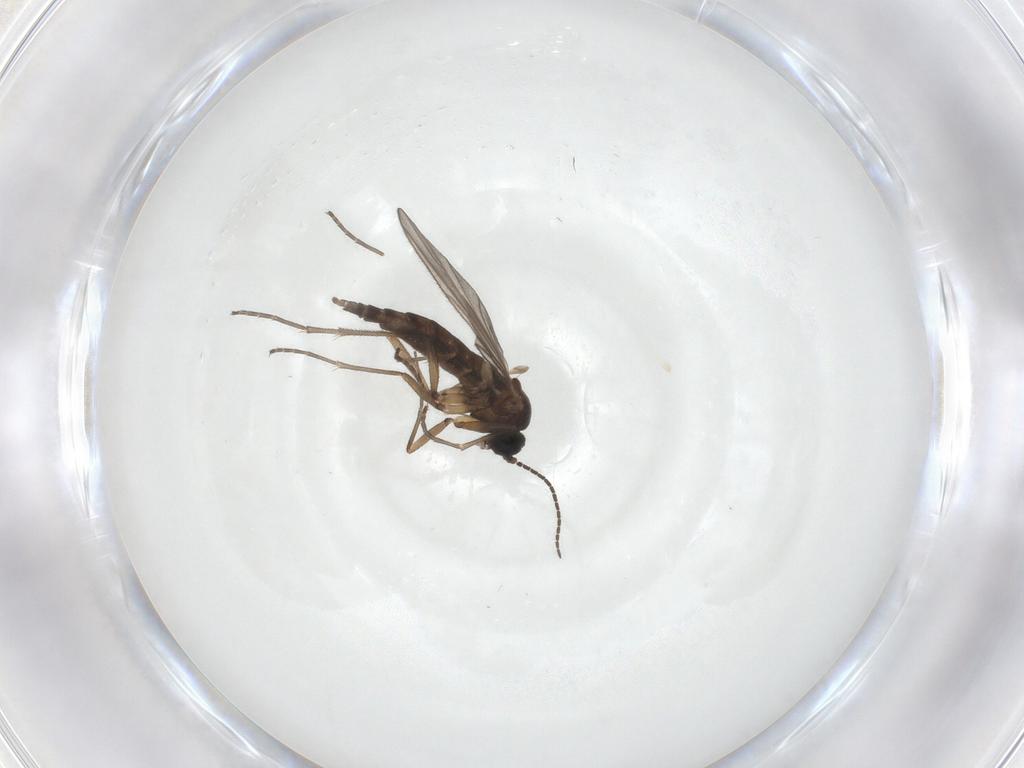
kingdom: Animalia
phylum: Arthropoda
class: Insecta
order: Diptera
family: Sciaridae
